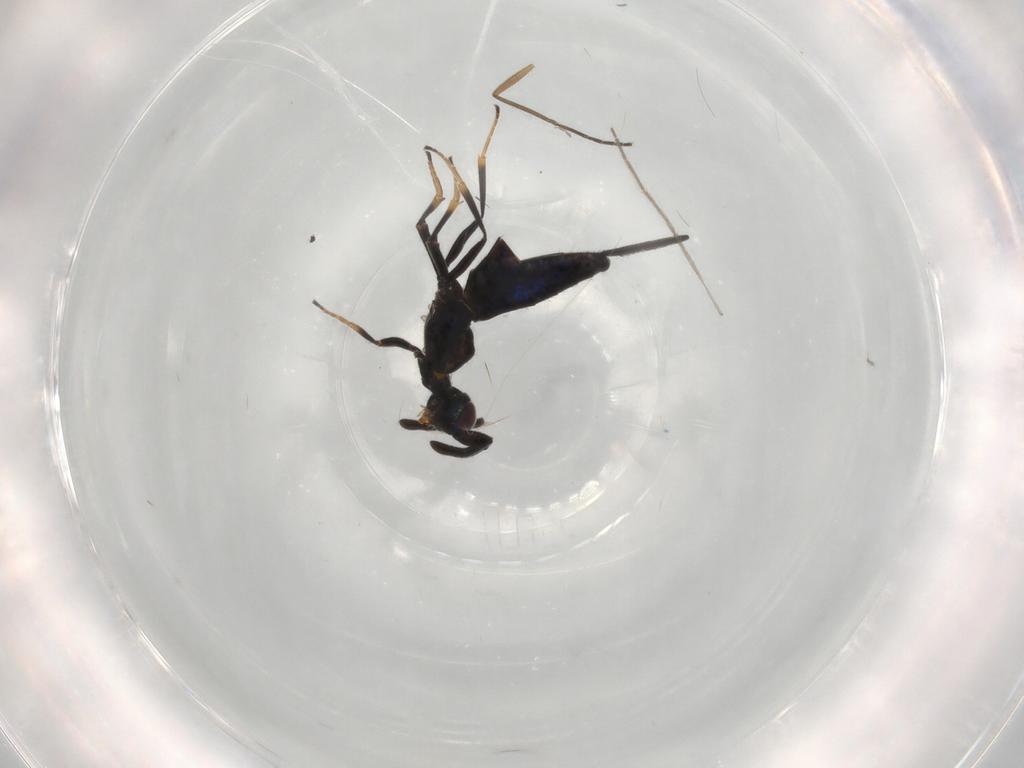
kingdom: Animalia
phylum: Arthropoda
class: Insecta
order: Hymenoptera
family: Eupelmidae
